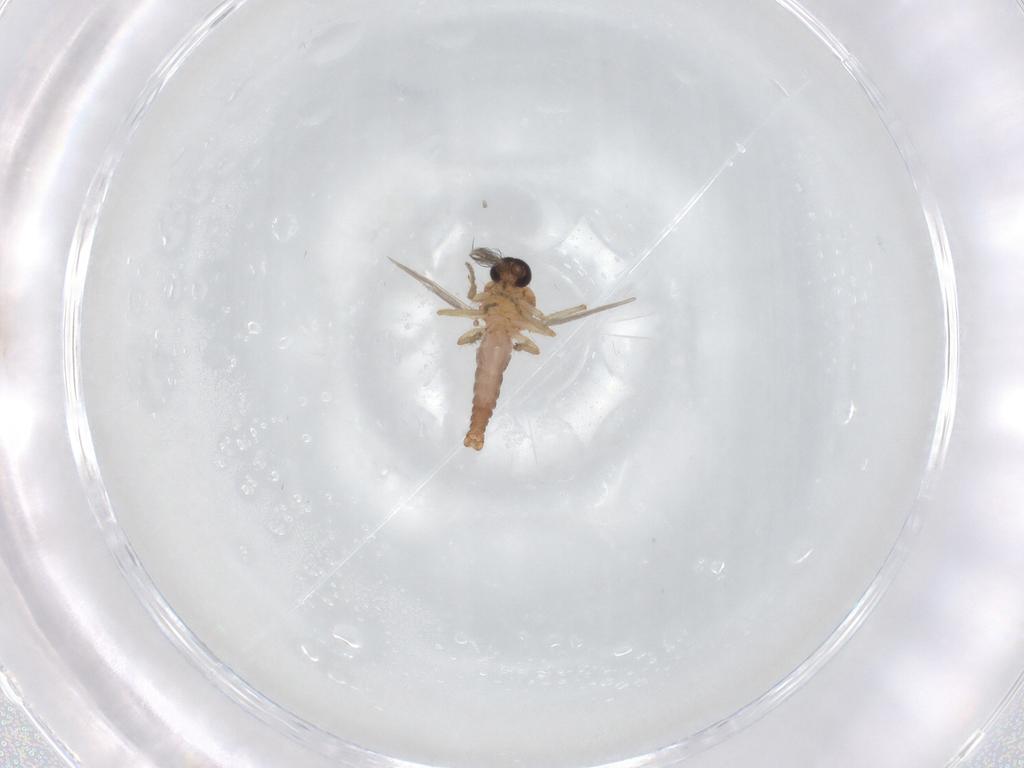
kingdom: Animalia
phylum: Arthropoda
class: Insecta
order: Diptera
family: Ceratopogonidae
